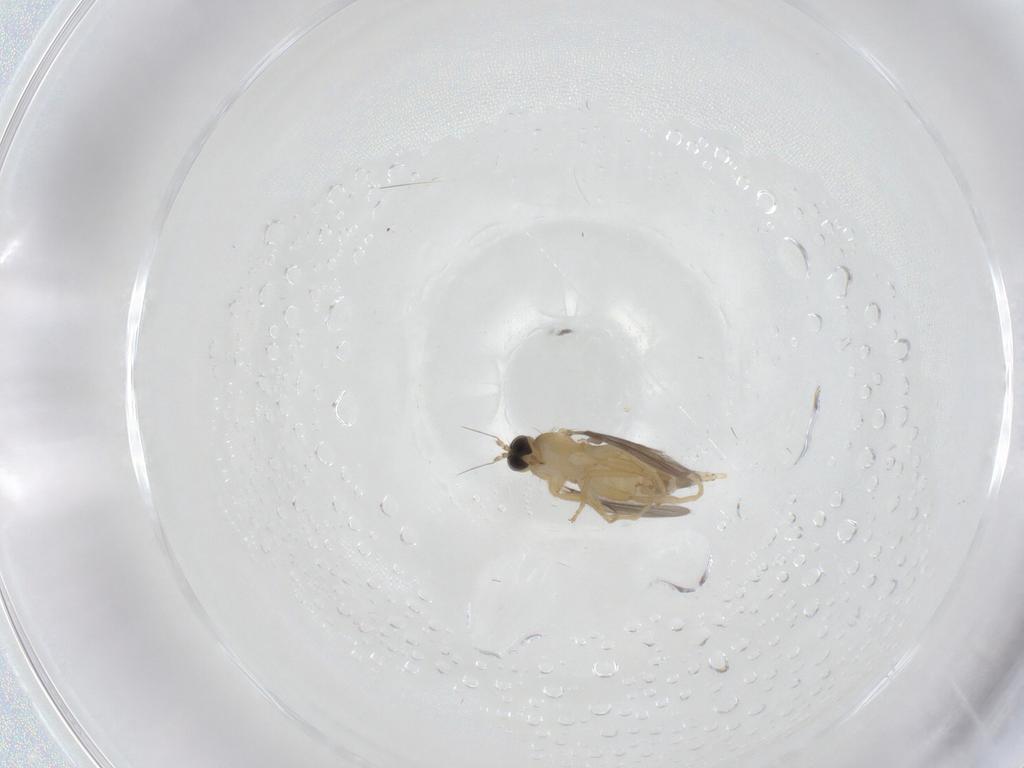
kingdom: Animalia
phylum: Arthropoda
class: Insecta
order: Diptera
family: Hybotidae
